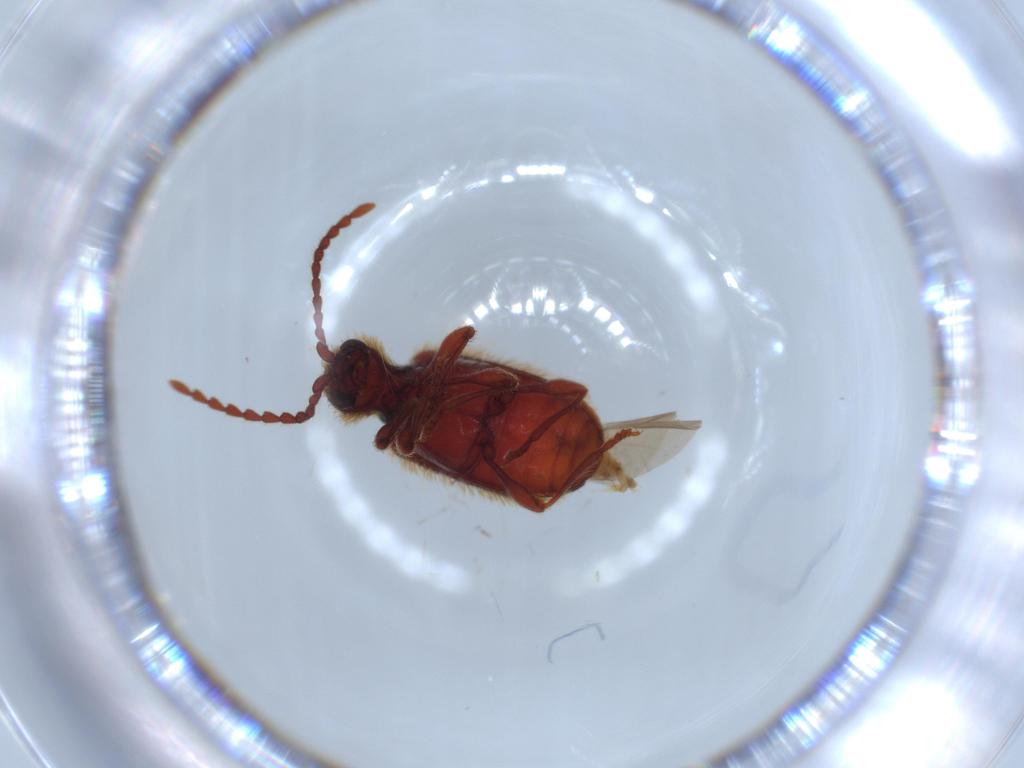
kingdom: Animalia
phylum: Arthropoda
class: Insecta
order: Coleoptera
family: Ptinidae
